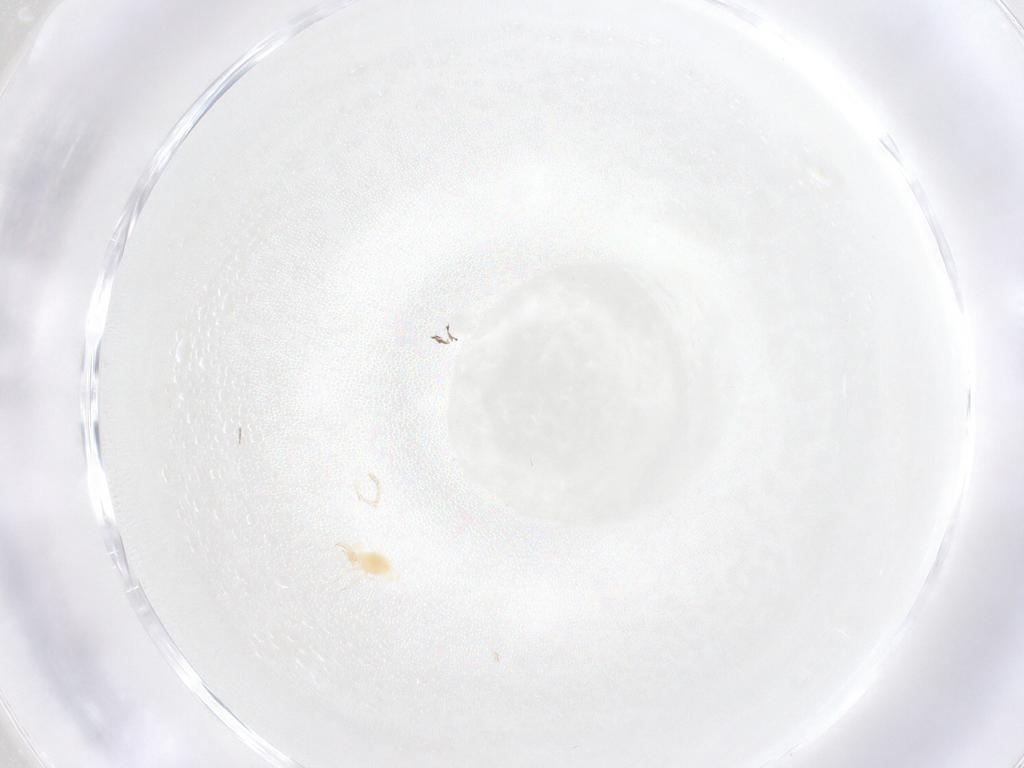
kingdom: Animalia
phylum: Arthropoda
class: Insecta
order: Thysanoptera
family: Heterothripidae
